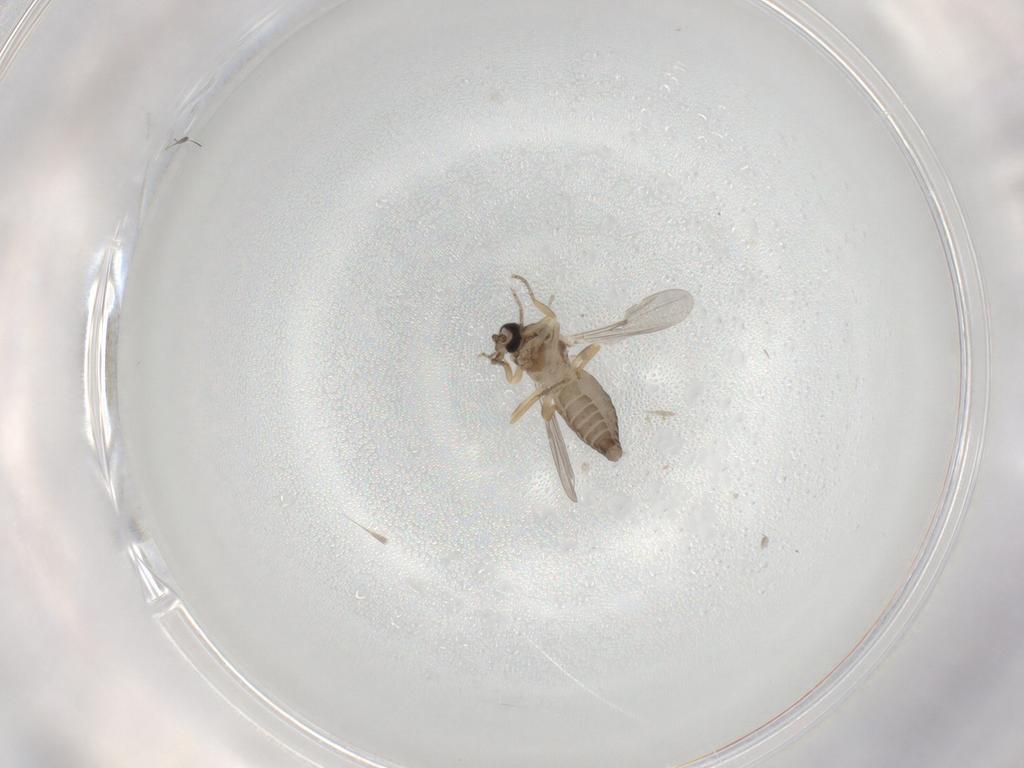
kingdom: Animalia
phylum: Arthropoda
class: Insecta
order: Diptera
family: Ceratopogonidae
